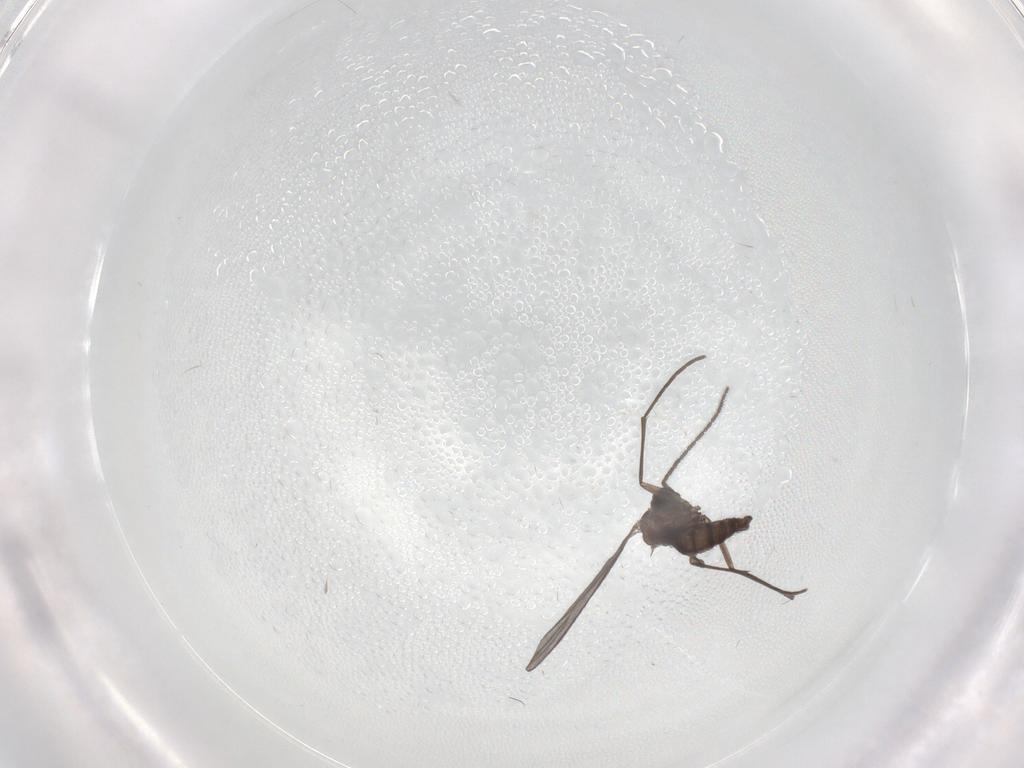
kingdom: Animalia
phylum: Arthropoda
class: Insecta
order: Diptera
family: Sciaridae
